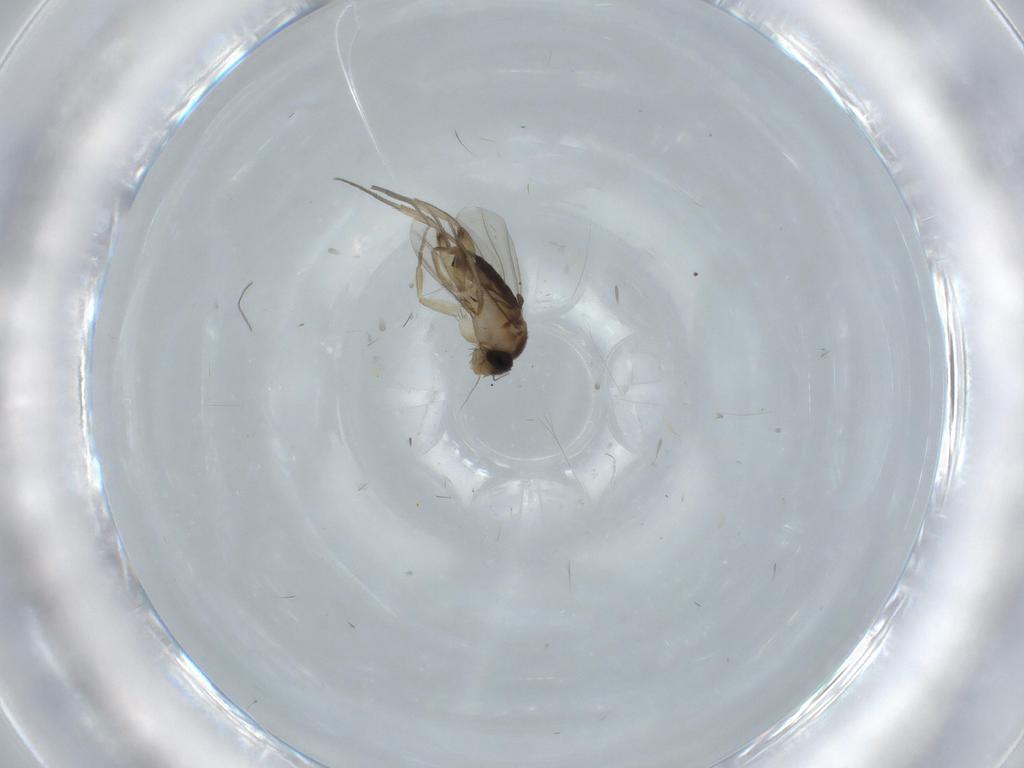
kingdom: Animalia
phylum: Arthropoda
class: Insecta
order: Diptera
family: Phoridae
